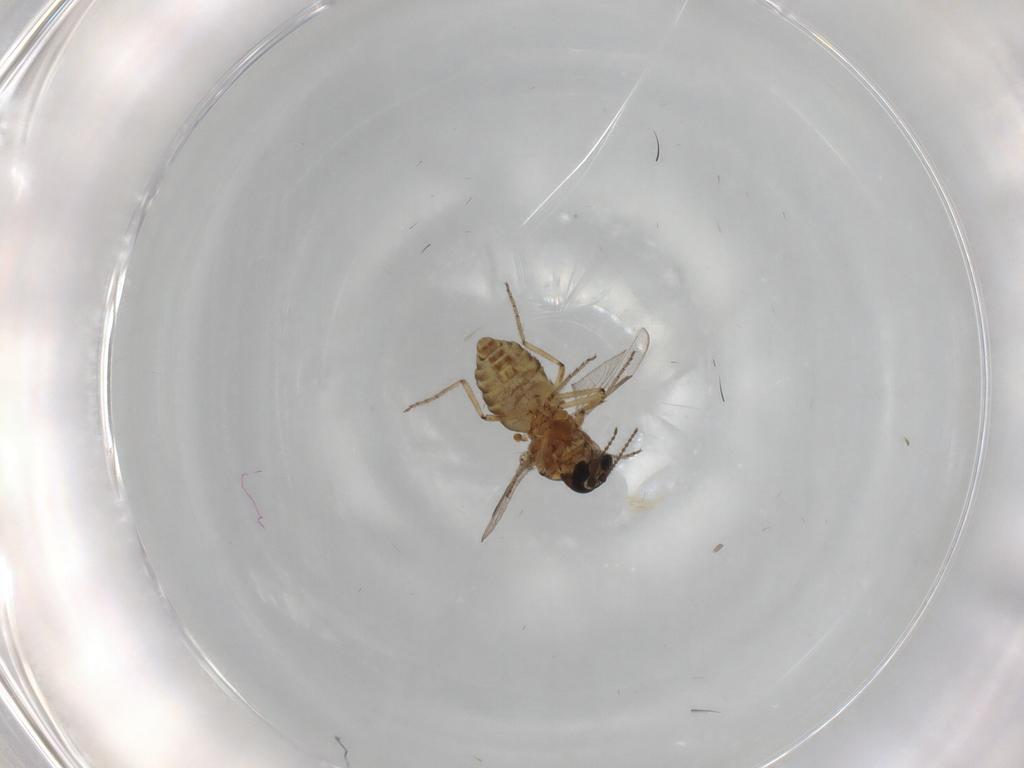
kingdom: Animalia
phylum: Arthropoda
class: Insecta
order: Diptera
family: Ceratopogonidae
